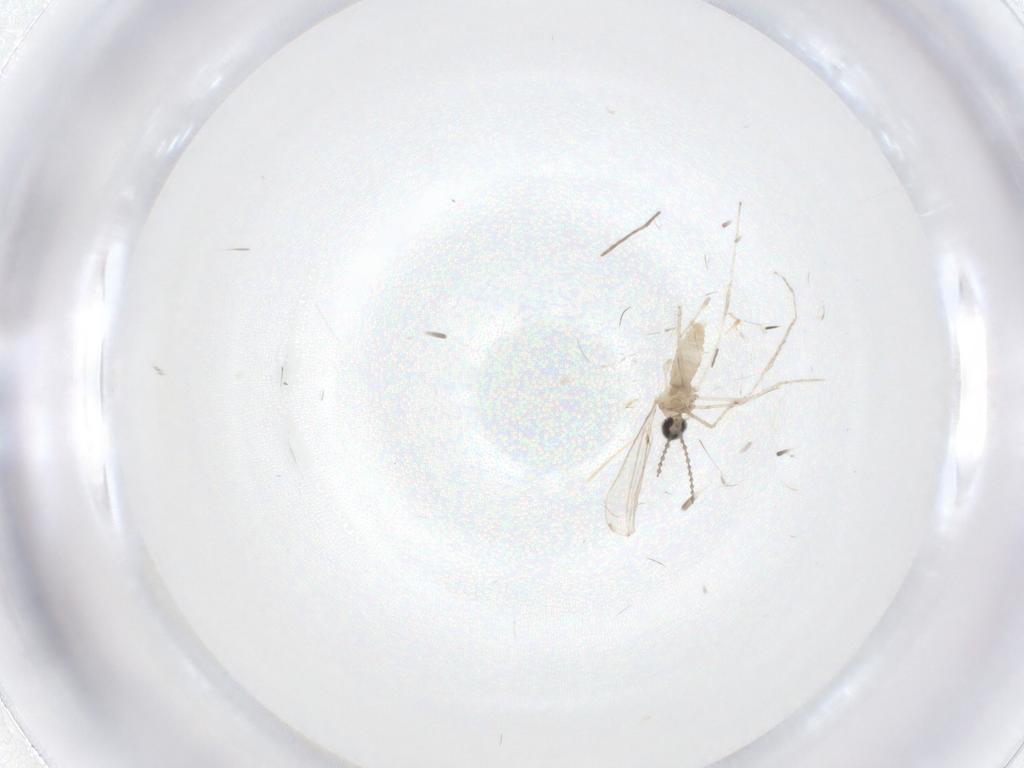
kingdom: Animalia
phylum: Arthropoda
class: Insecta
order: Diptera
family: Chironomidae
